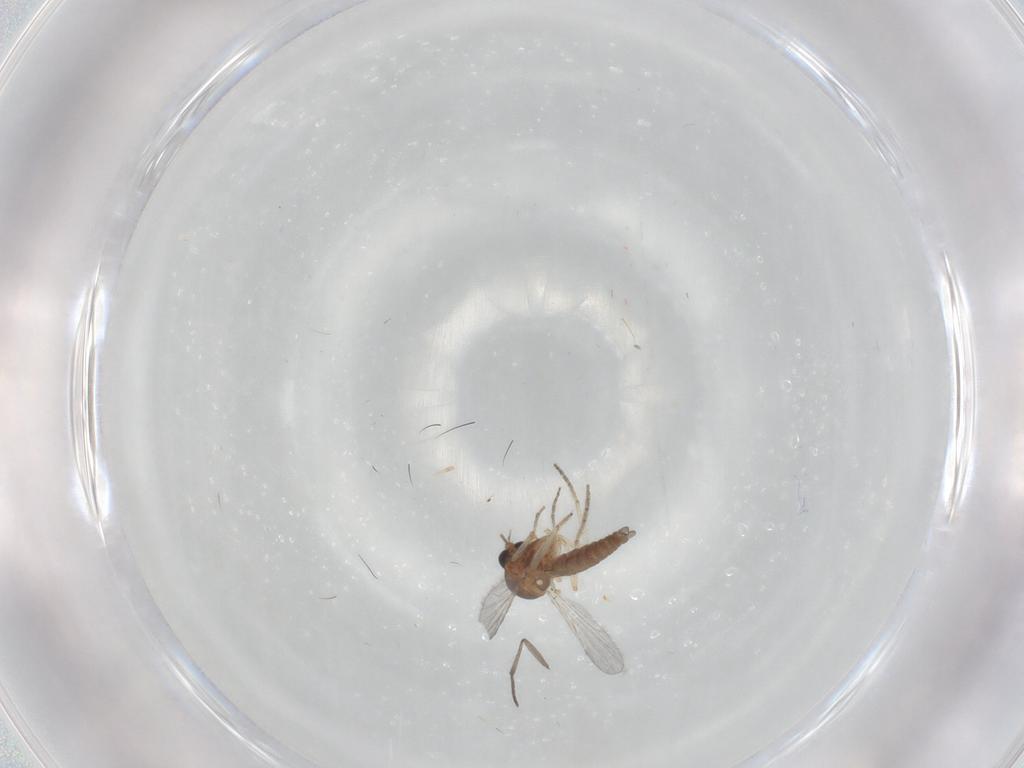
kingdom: Animalia
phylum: Arthropoda
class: Insecta
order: Diptera
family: Ceratopogonidae
